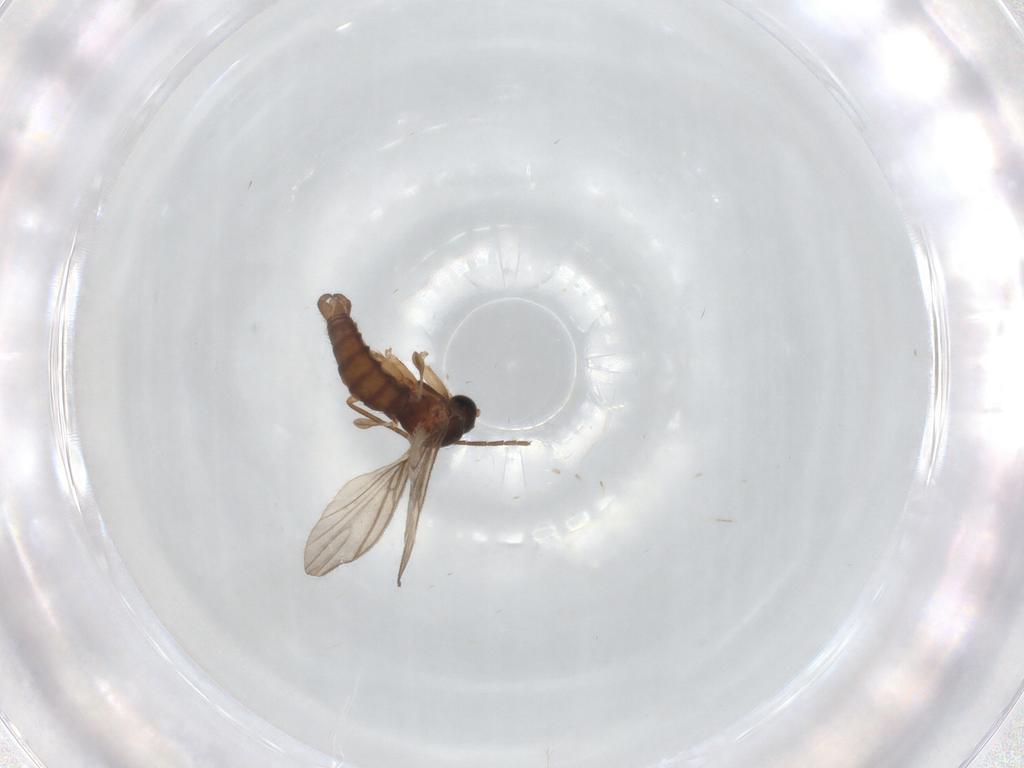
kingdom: Animalia
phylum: Arthropoda
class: Insecta
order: Diptera
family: Sciaridae
